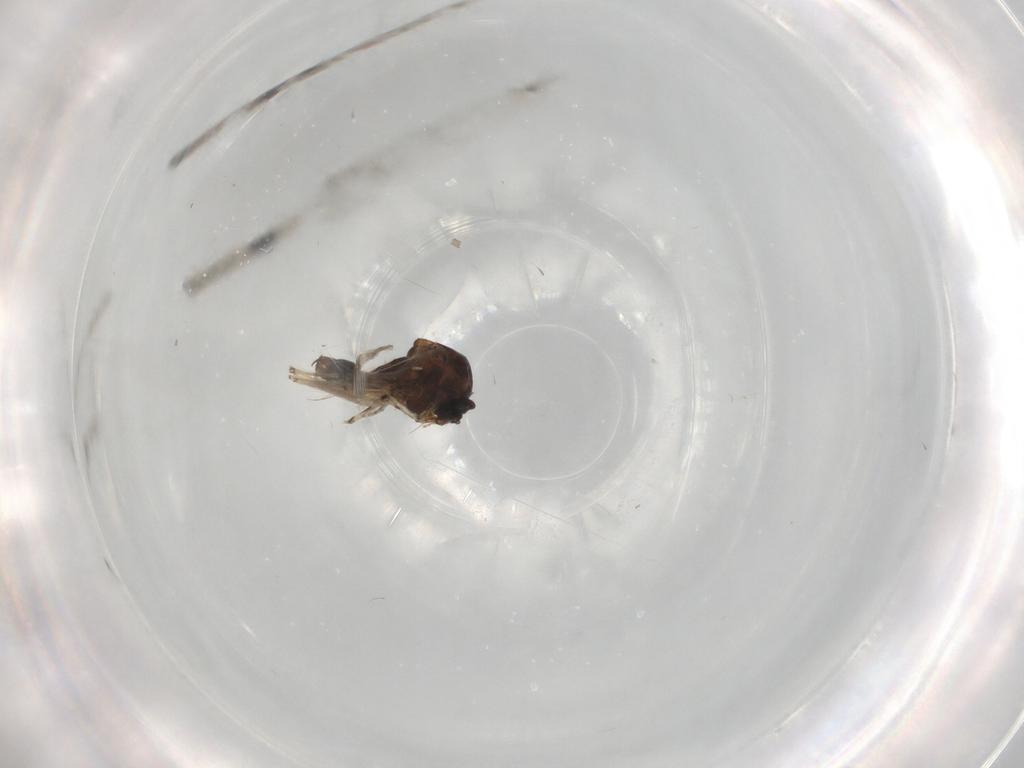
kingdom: Animalia
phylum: Arthropoda
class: Insecta
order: Diptera
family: Ceratopogonidae
